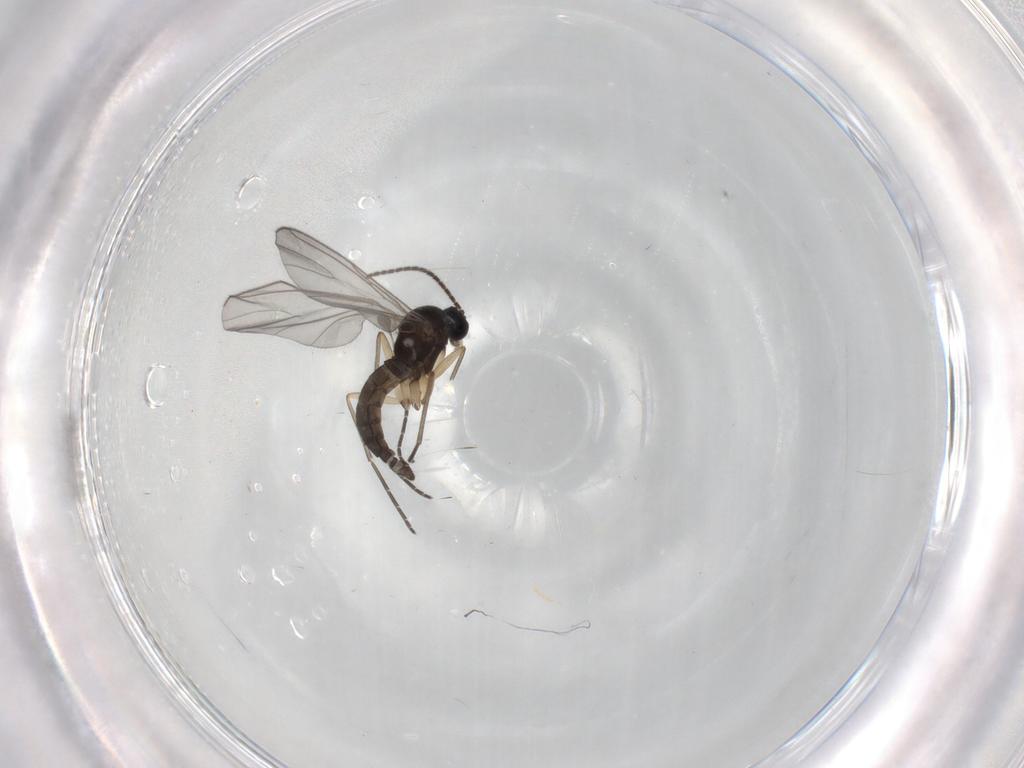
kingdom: Animalia
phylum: Arthropoda
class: Insecta
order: Diptera
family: Sciaridae
